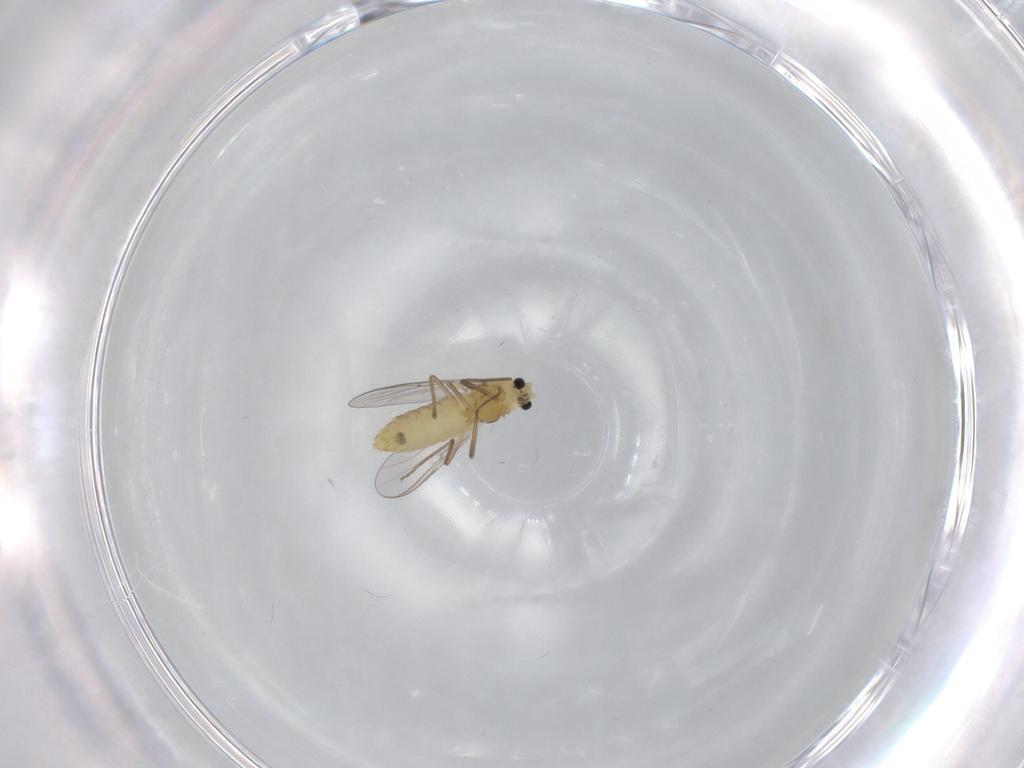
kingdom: Animalia
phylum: Arthropoda
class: Insecta
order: Diptera
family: Chironomidae
